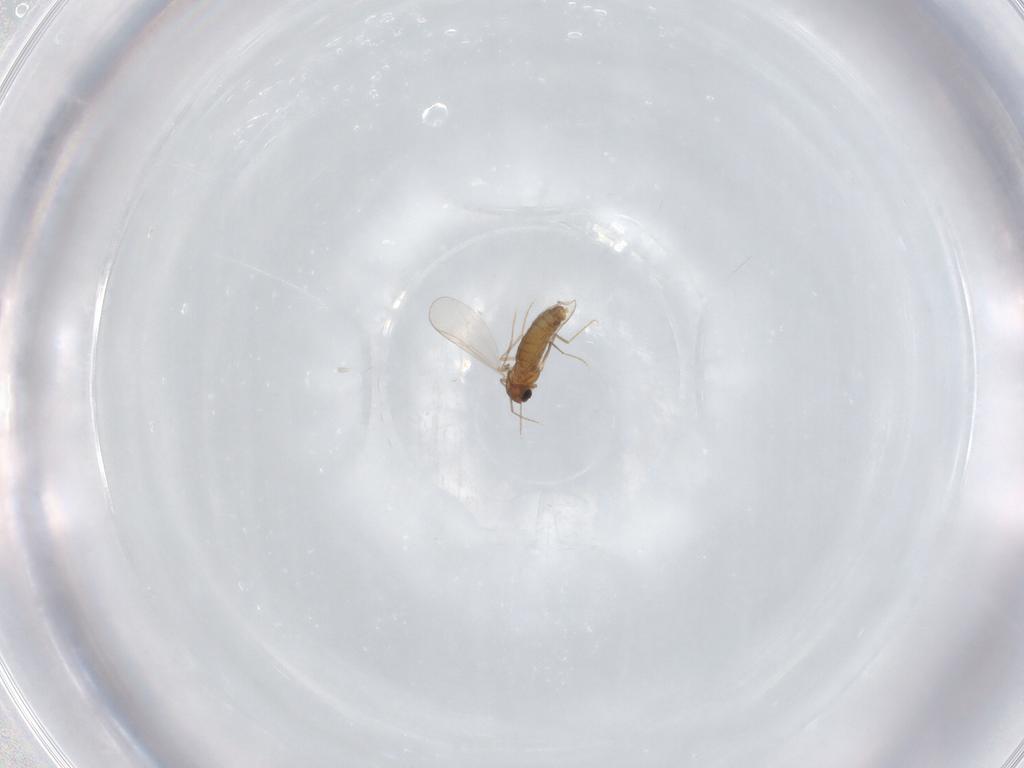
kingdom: Animalia
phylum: Arthropoda
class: Insecta
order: Diptera
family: Chironomidae
